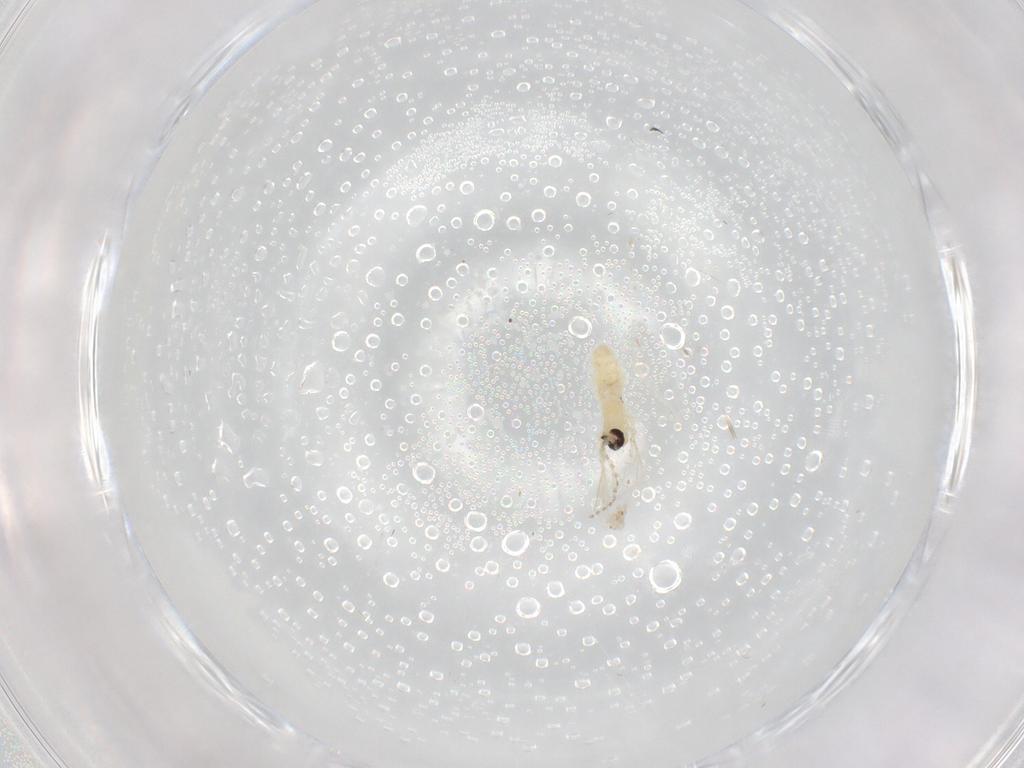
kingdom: Animalia
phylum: Arthropoda
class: Insecta
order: Diptera
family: Cecidomyiidae
